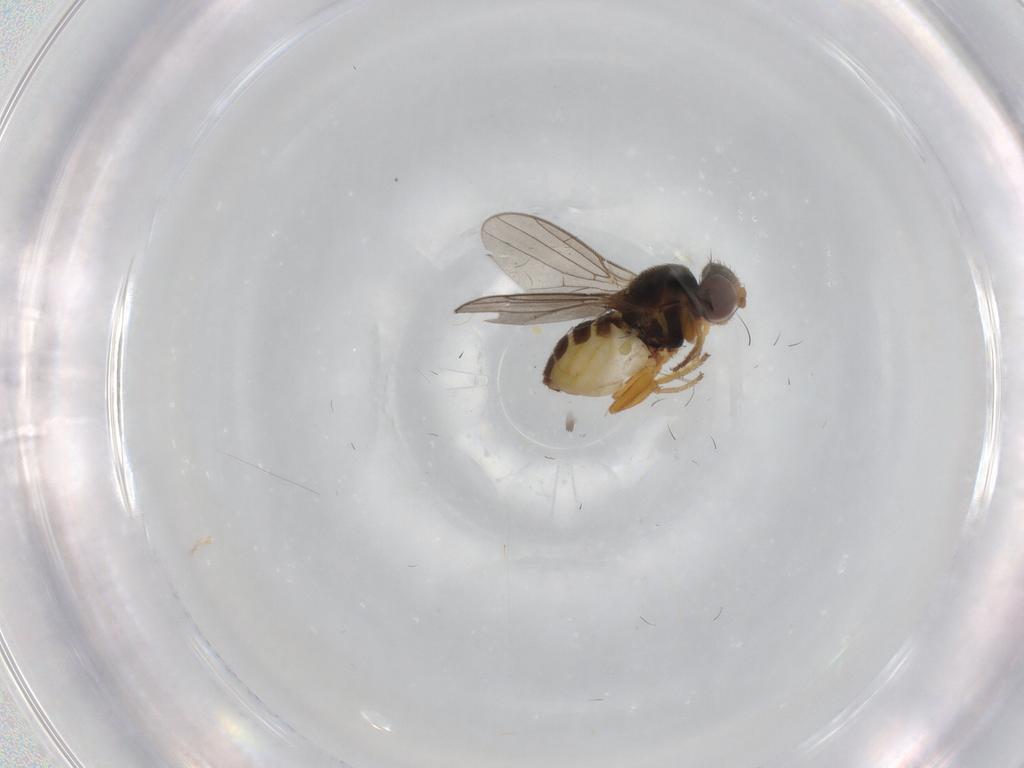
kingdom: Animalia
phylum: Arthropoda
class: Insecta
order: Diptera
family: Chloropidae
